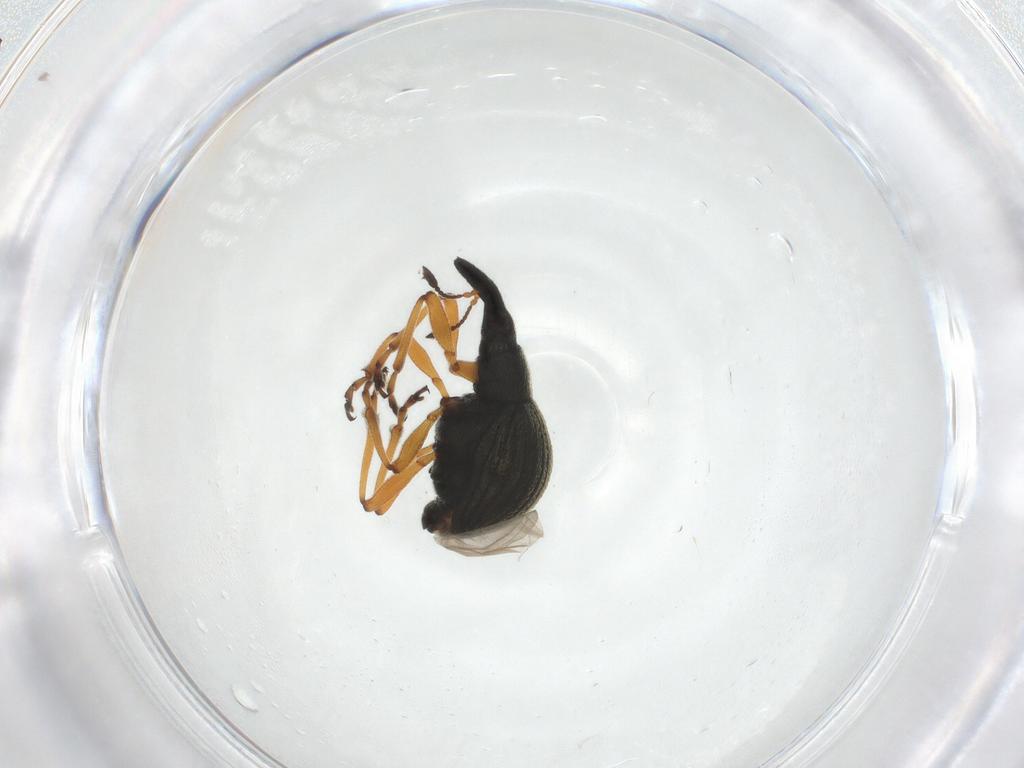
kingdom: Animalia
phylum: Arthropoda
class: Insecta
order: Coleoptera
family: Brentidae
